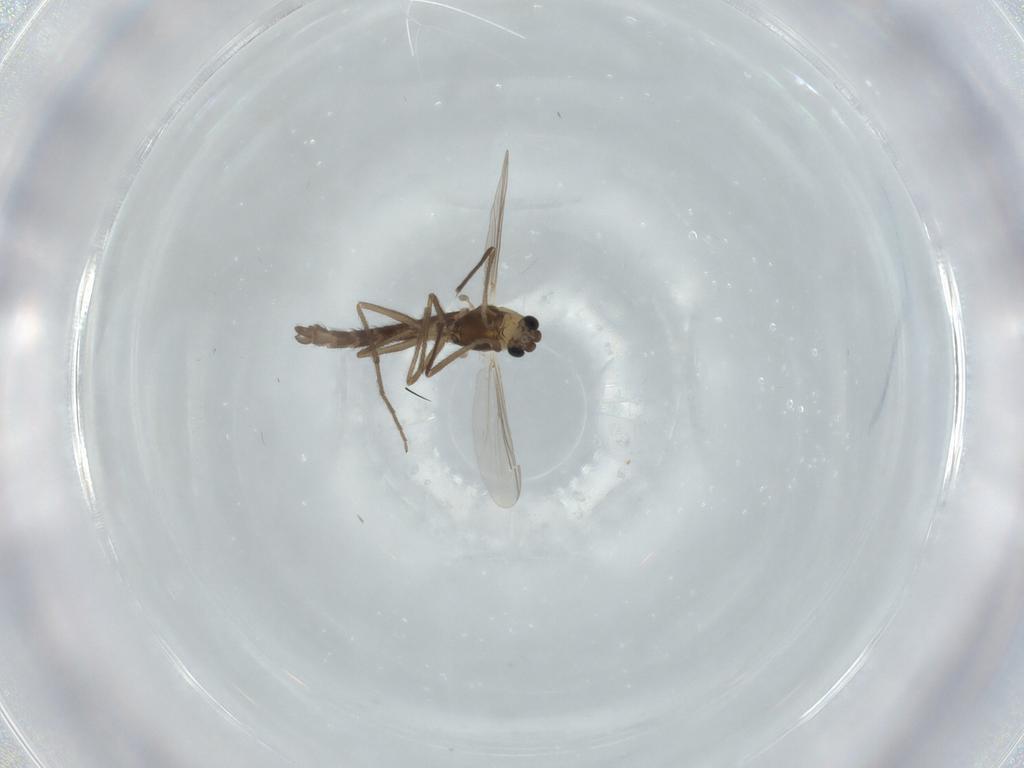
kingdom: Animalia
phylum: Arthropoda
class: Insecta
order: Diptera
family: Chironomidae
